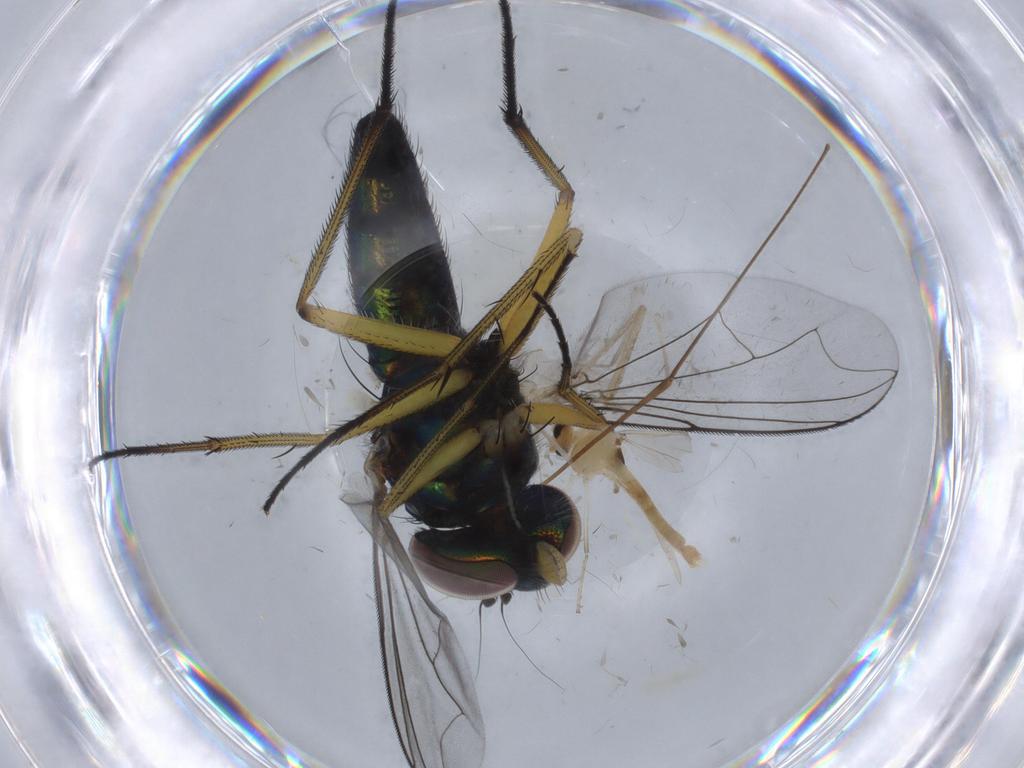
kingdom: Animalia
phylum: Arthropoda
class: Insecta
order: Diptera
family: Dolichopodidae
